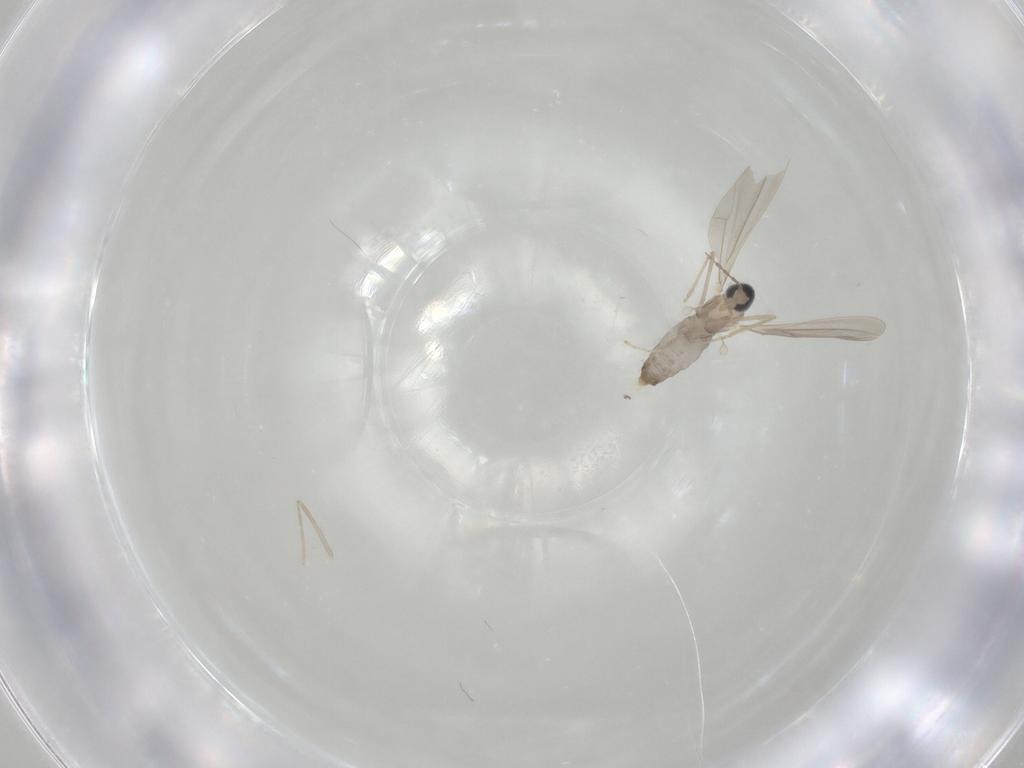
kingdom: Animalia
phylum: Arthropoda
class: Insecta
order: Diptera
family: Cecidomyiidae
